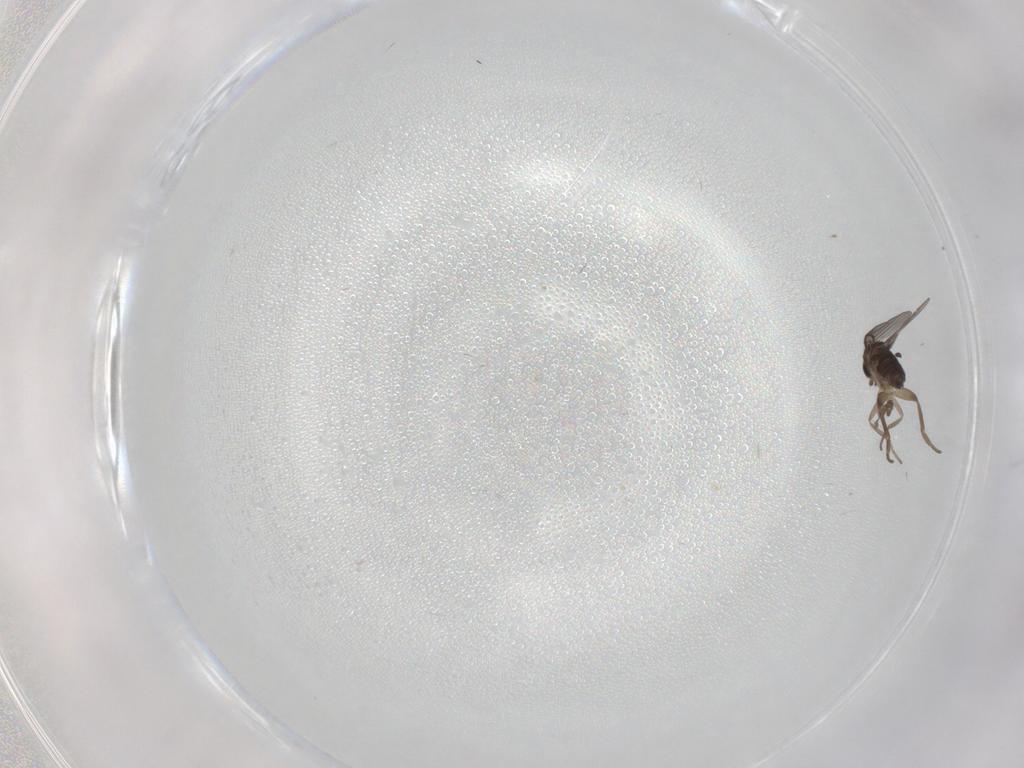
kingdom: Animalia
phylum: Arthropoda
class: Insecta
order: Diptera
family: Phoridae
